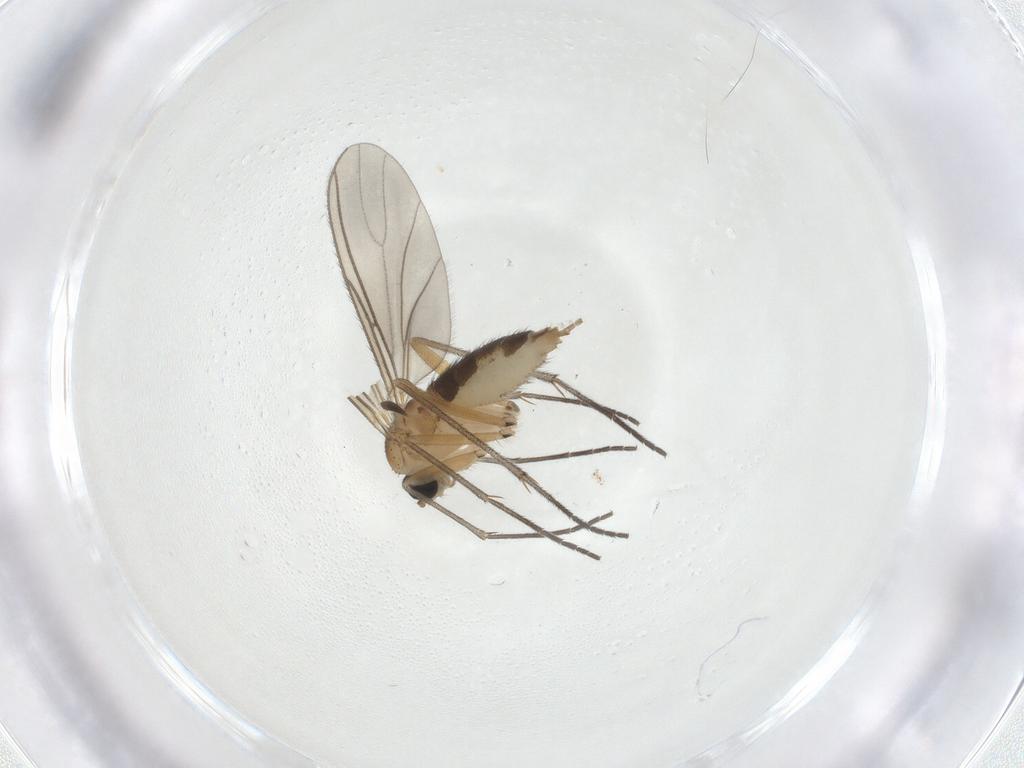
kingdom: Animalia
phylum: Arthropoda
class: Insecta
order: Diptera
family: Sciaridae
